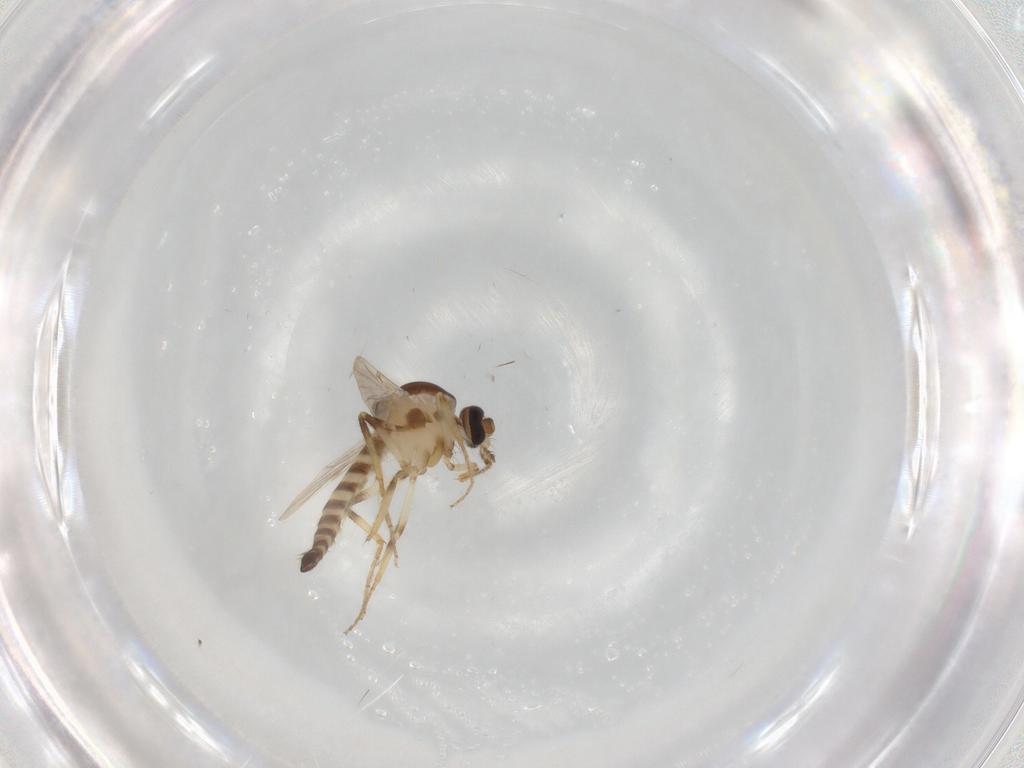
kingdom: Animalia
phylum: Arthropoda
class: Insecta
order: Diptera
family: Ceratopogonidae
